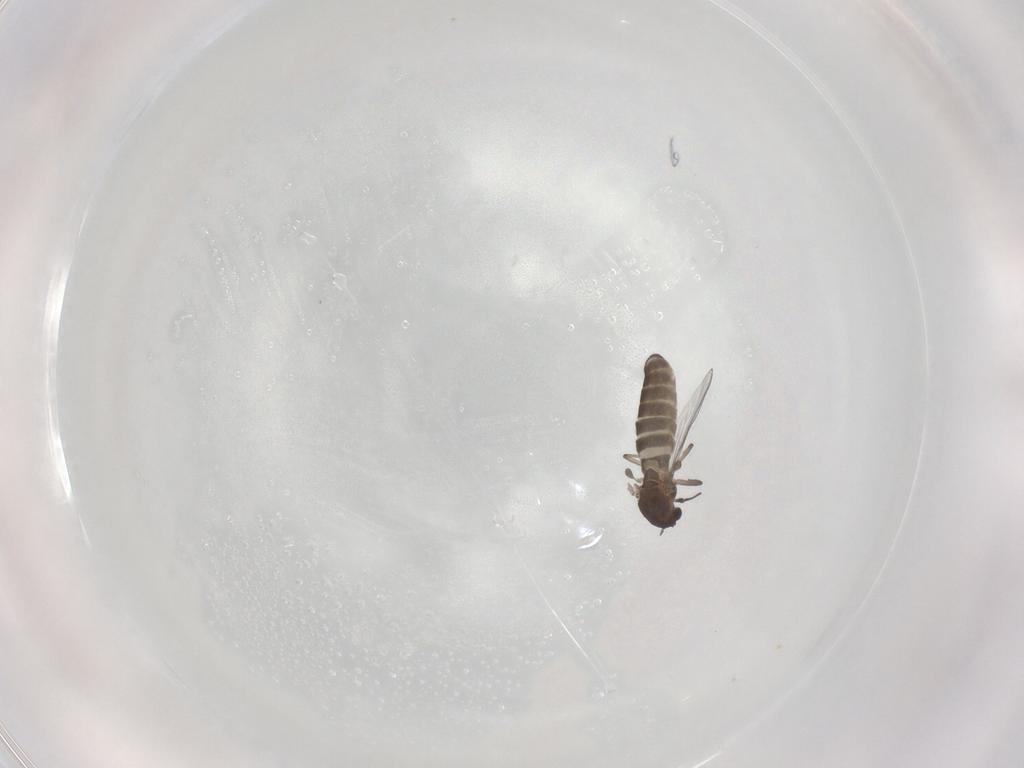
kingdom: Animalia
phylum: Arthropoda
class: Insecta
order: Diptera
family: Chironomidae
